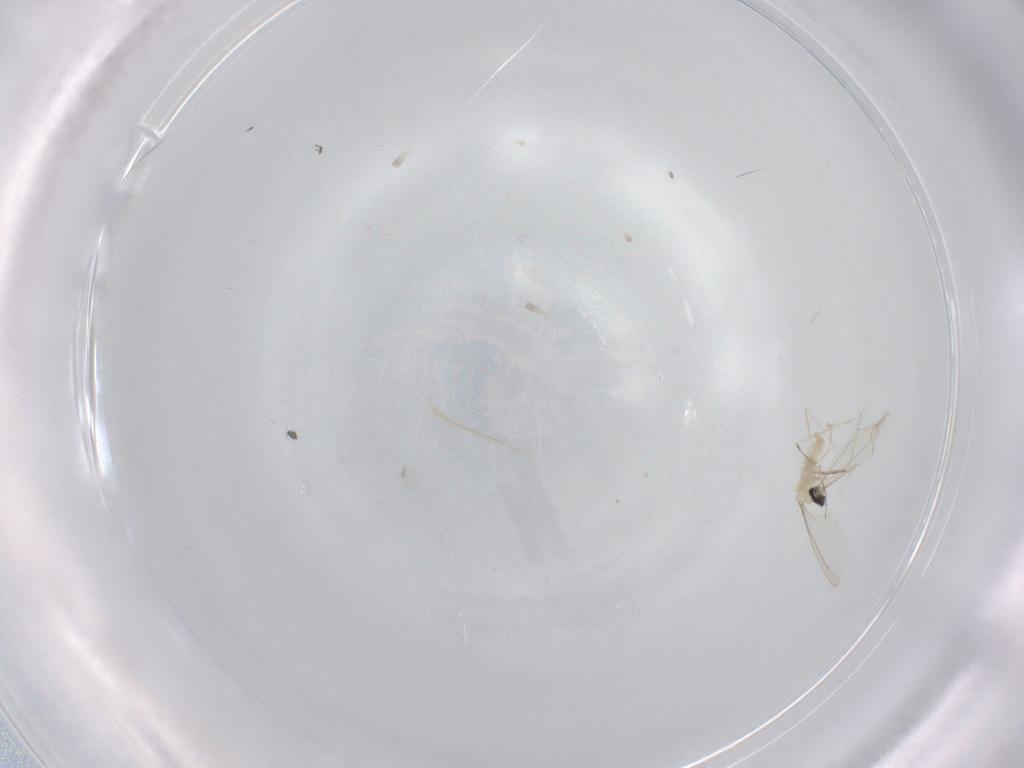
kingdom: Animalia
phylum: Arthropoda
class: Insecta
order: Diptera
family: Cecidomyiidae
